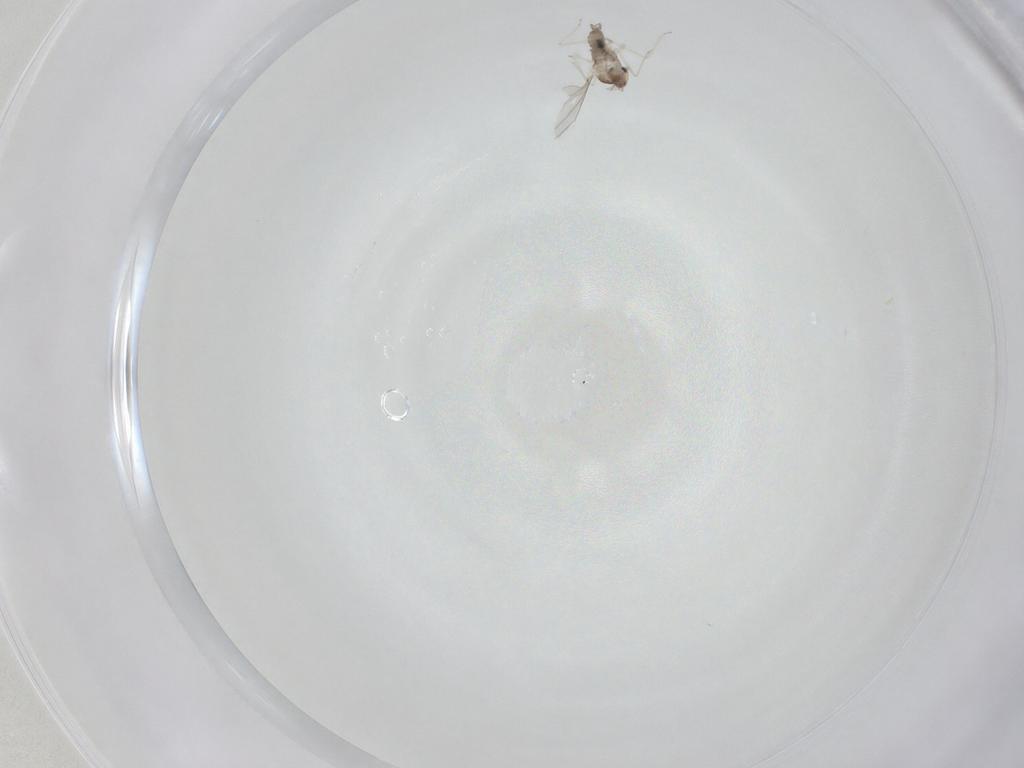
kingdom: Animalia
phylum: Arthropoda
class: Insecta
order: Diptera
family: Cecidomyiidae
